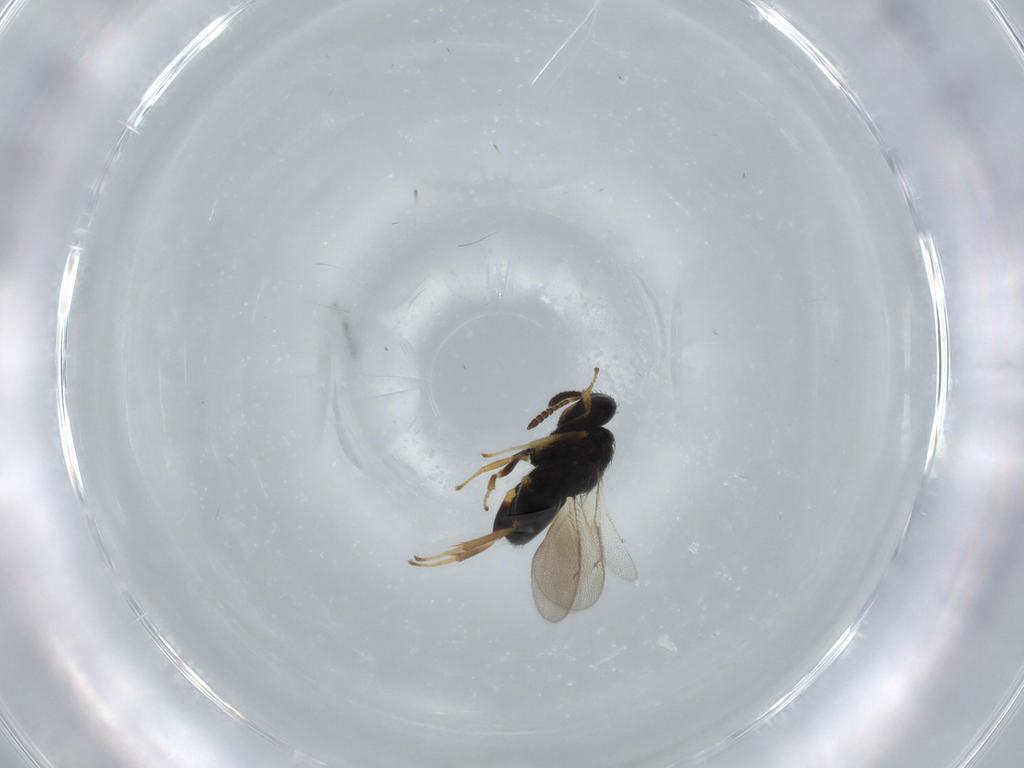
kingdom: Animalia
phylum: Arthropoda
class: Insecta
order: Hymenoptera
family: Pteromalidae
